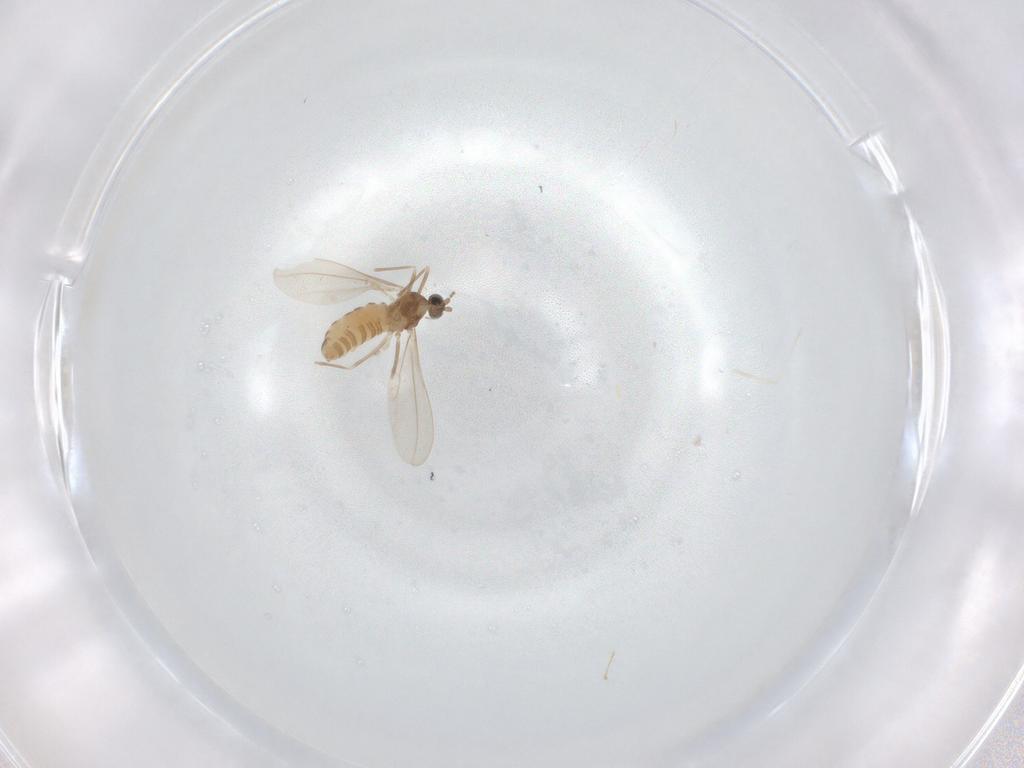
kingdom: Animalia
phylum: Arthropoda
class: Insecta
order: Diptera
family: Cecidomyiidae
